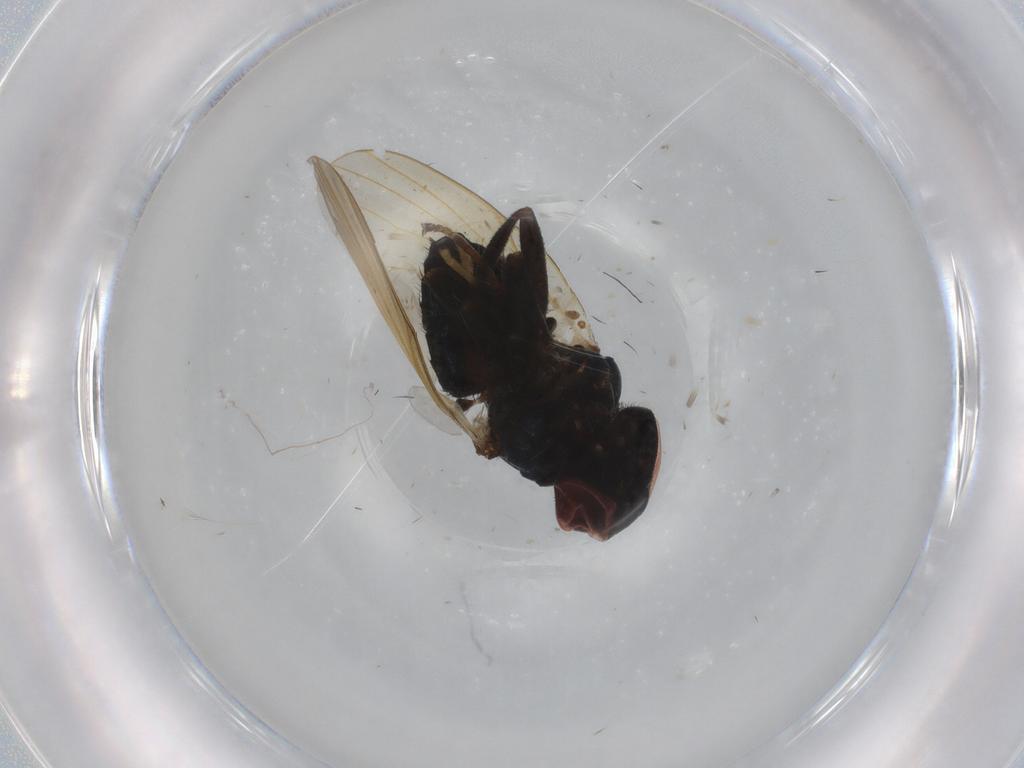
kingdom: Animalia
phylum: Arthropoda
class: Insecta
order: Diptera
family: Lonchaeidae
